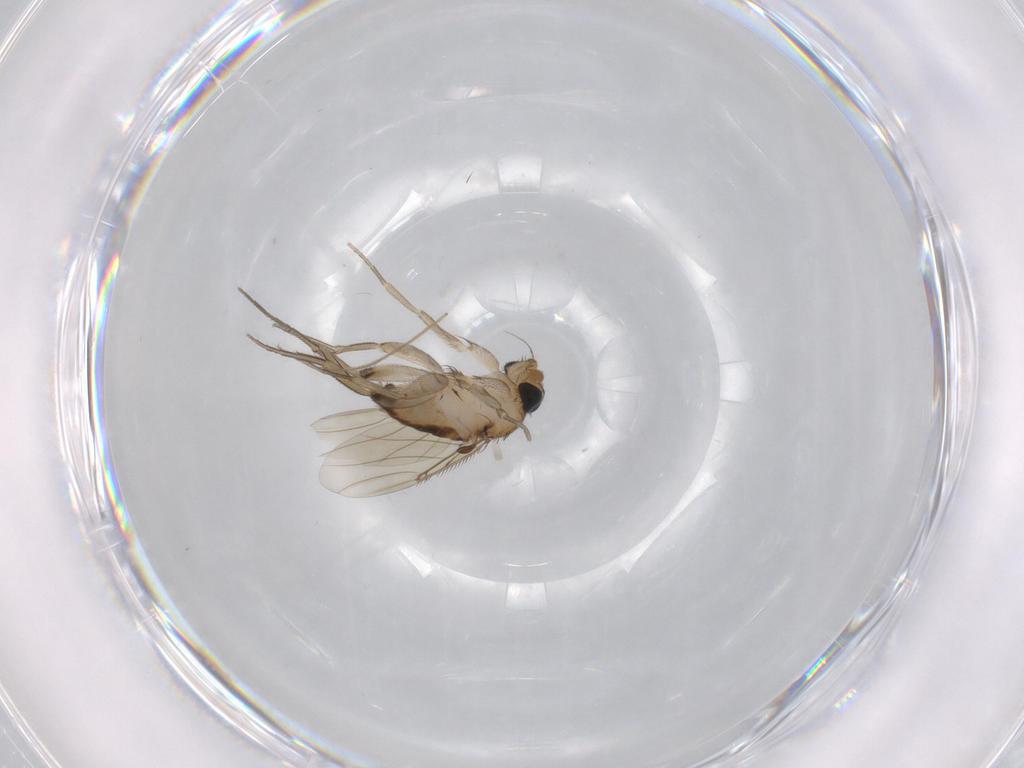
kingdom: Animalia
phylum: Arthropoda
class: Insecta
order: Diptera
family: Phoridae
